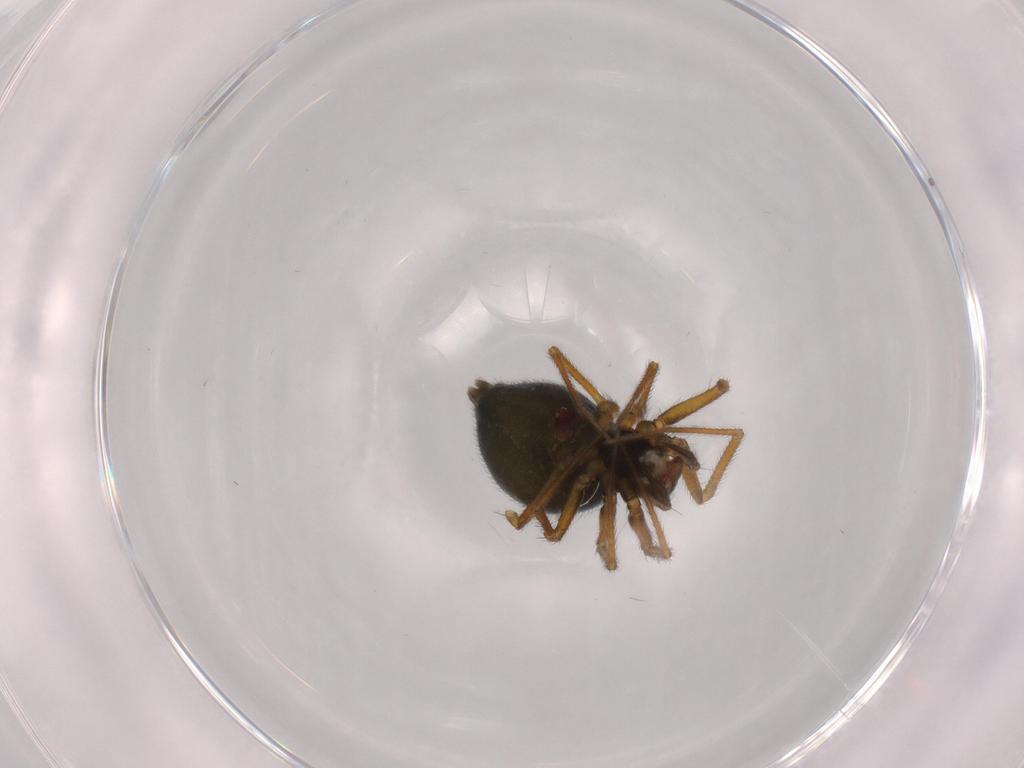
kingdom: Animalia
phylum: Arthropoda
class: Arachnida
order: Araneae
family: Linyphiidae
